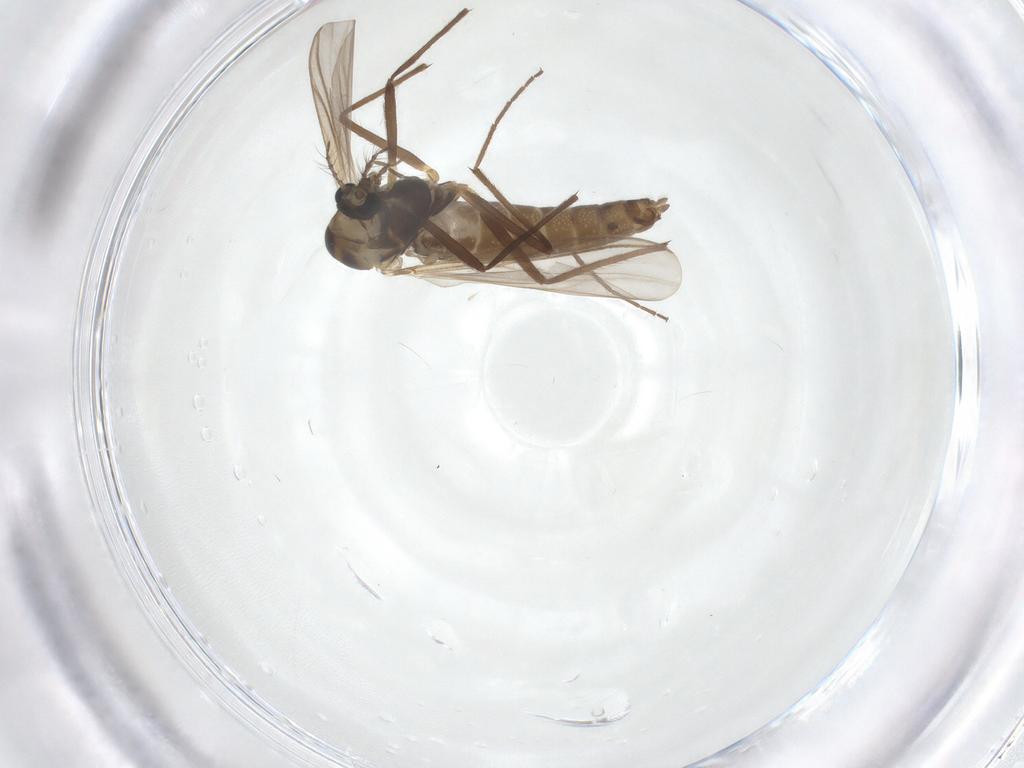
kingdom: Animalia
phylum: Arthropoda
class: Insecta
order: Diptera
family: Chironomidae
